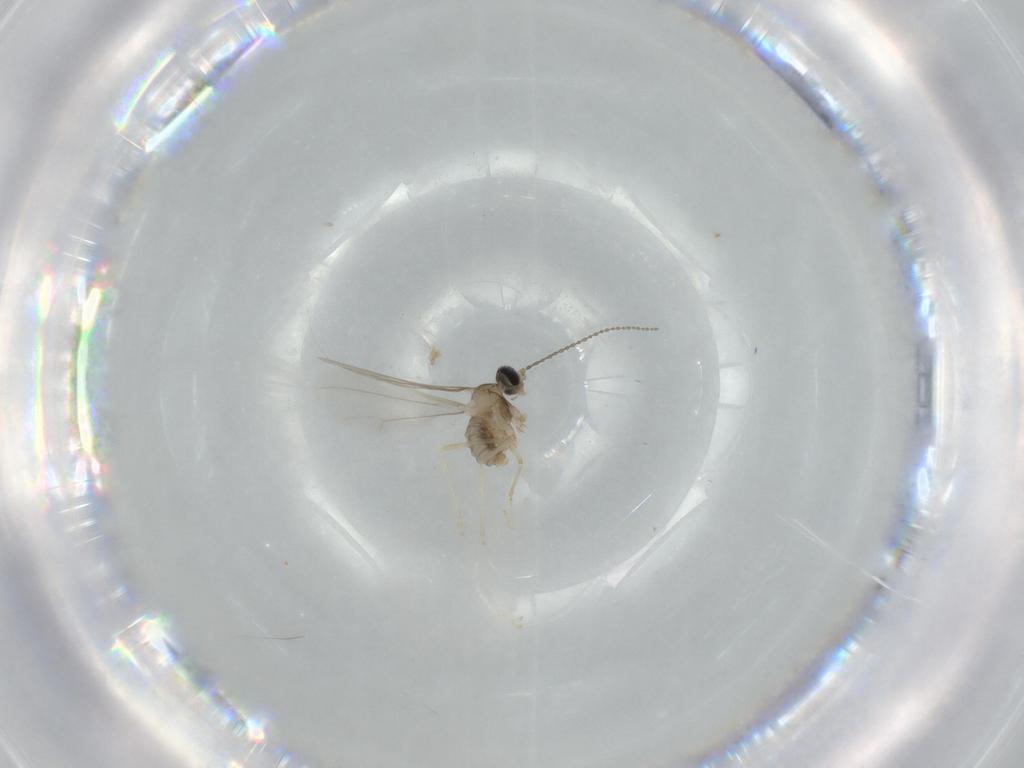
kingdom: Animalia
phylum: Arthropoda
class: Insecta
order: Diptera
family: Cecidomyiidae
